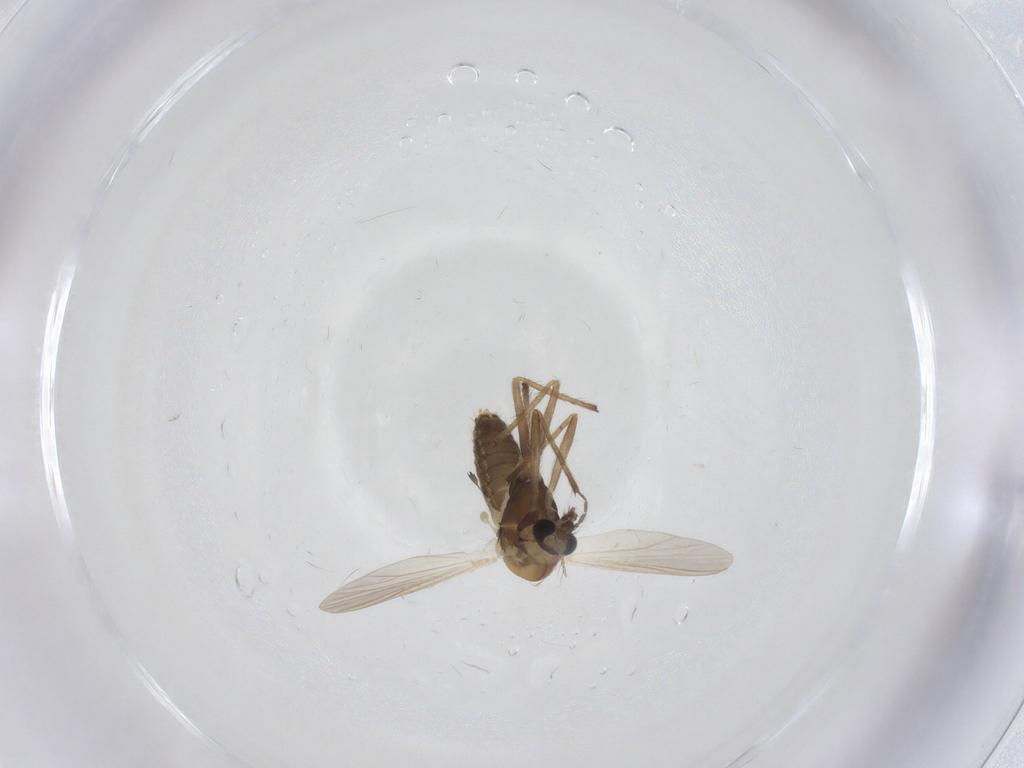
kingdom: Animalia
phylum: Arthropoda
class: Insecta
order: Diptera
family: Chironomidae
